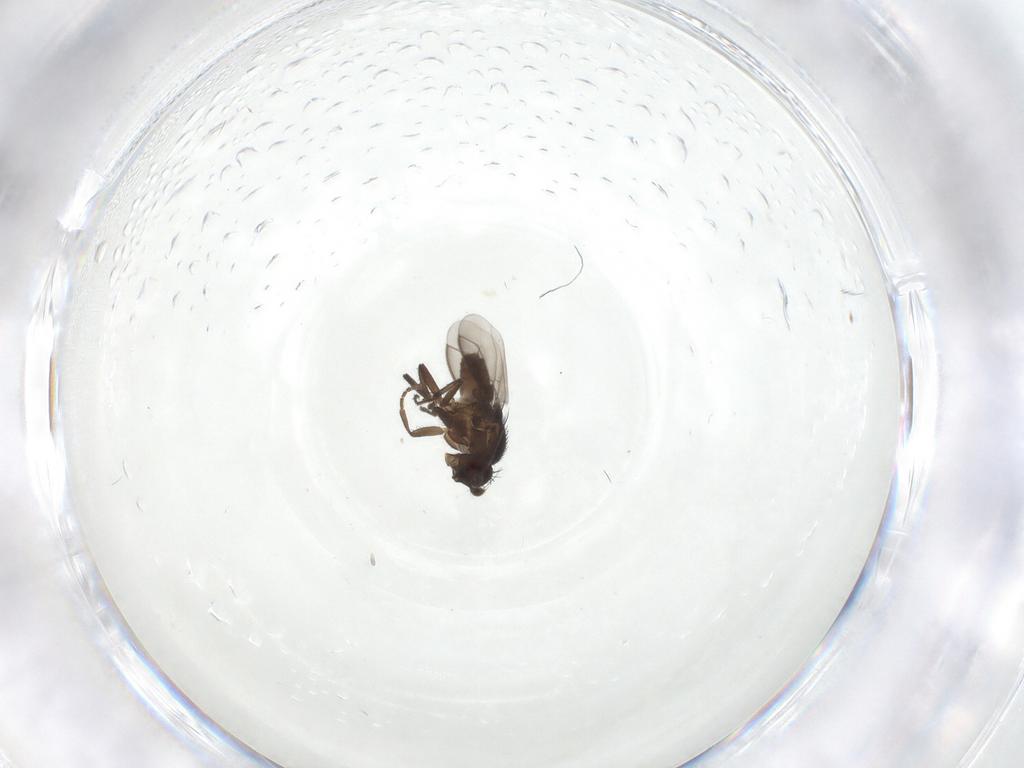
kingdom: Animalia
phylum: Arthropoda
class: Insecta
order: Diptera
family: Sphaeroceridae
